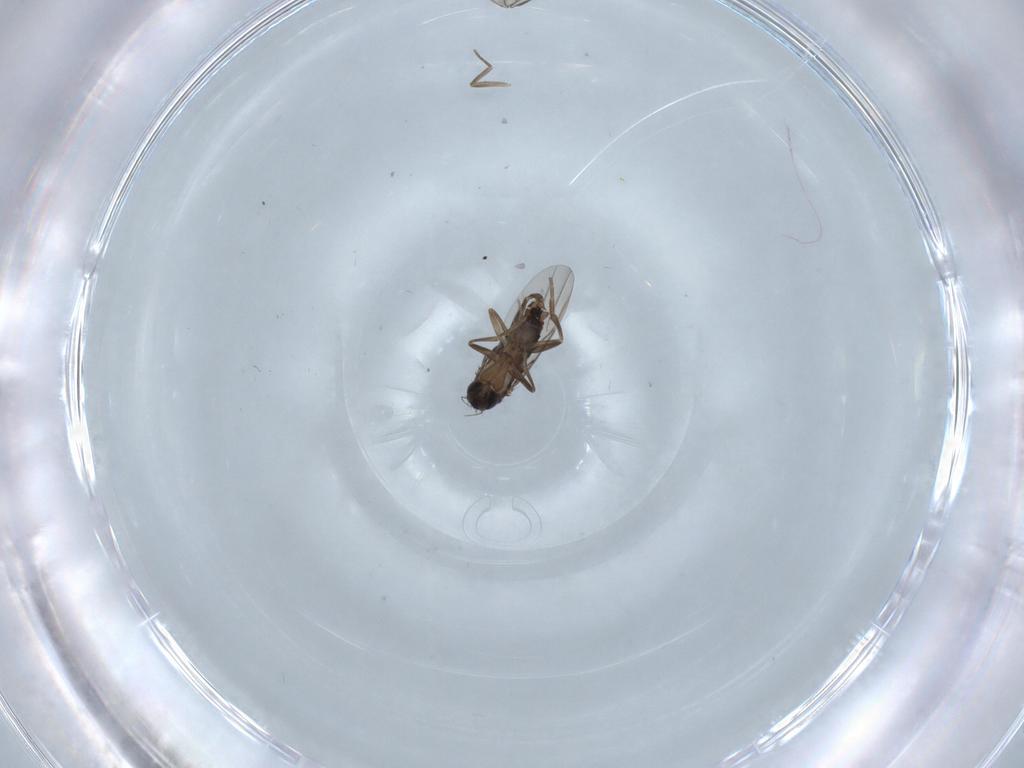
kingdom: Animalia
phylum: Arthropoda
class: Insecta
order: Diptera
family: Phoridae
